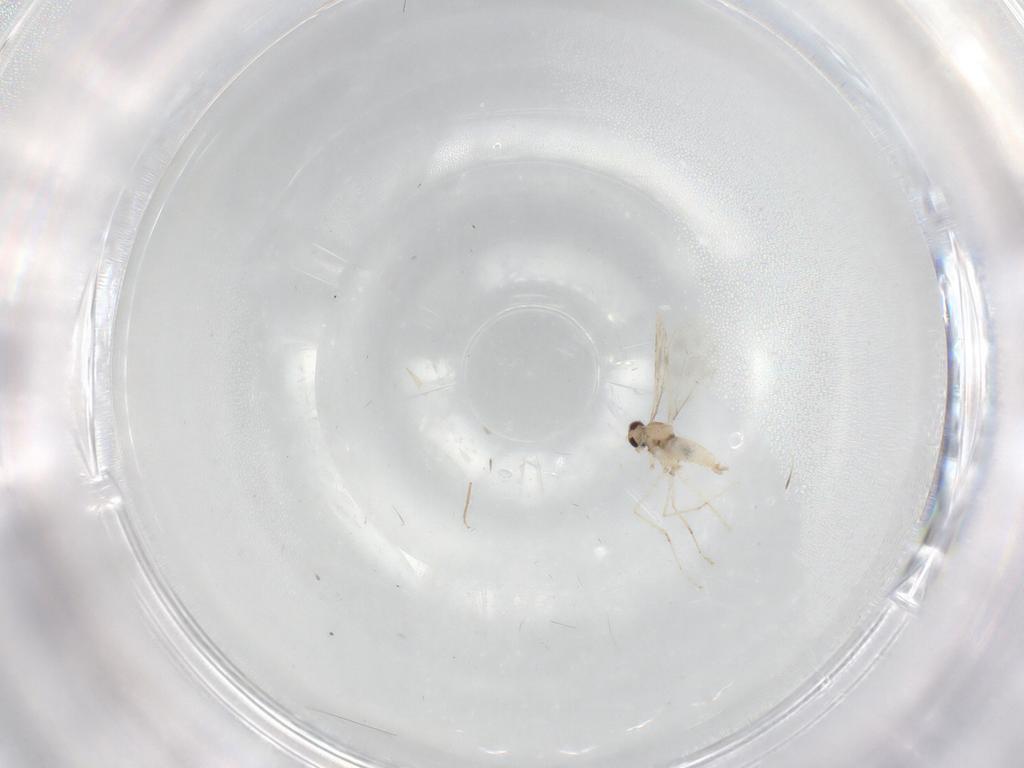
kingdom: Animalia
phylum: Arthropoda
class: Insecta
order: Diptera
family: Cecidomyiidae
